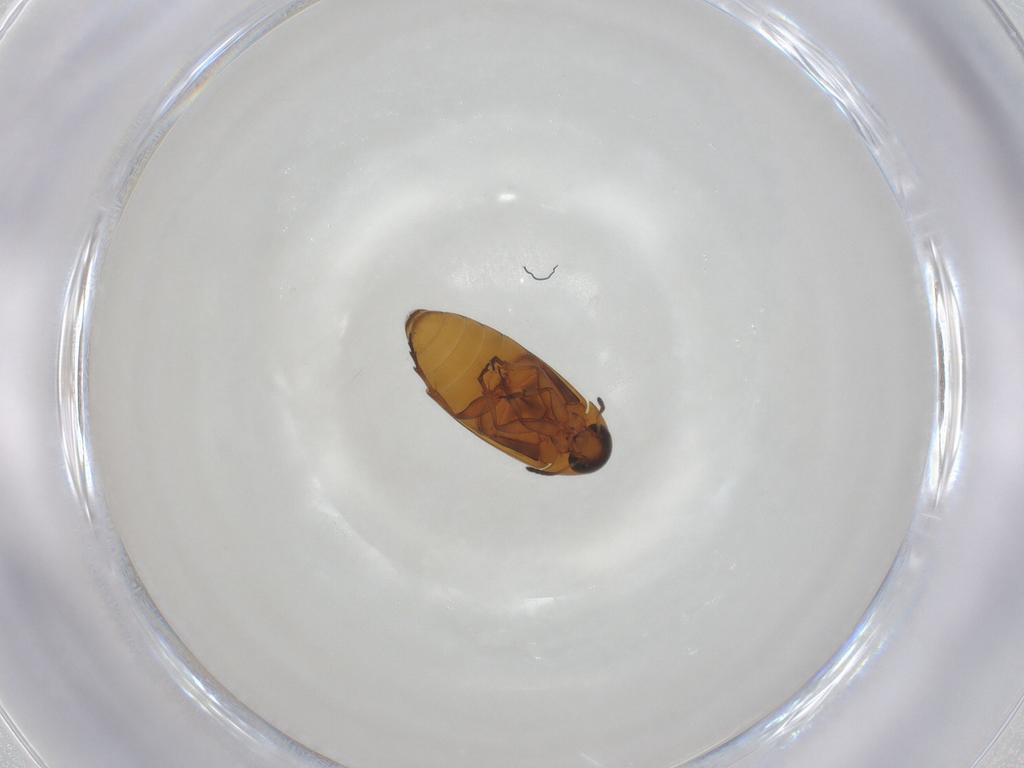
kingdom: Animalia
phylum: Arthropoda
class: Insecta
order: Coleoptera
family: Scraptiidae
